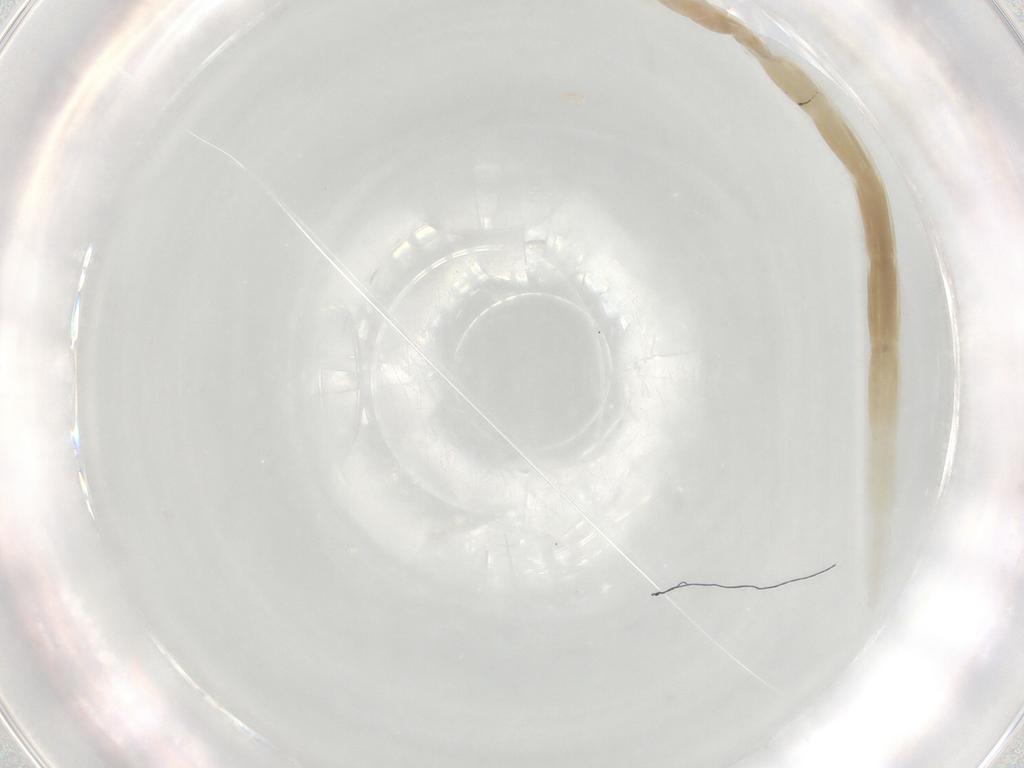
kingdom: Animalia
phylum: Arthropoda
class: Insecta
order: Diptera
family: Ceratopogonidae
